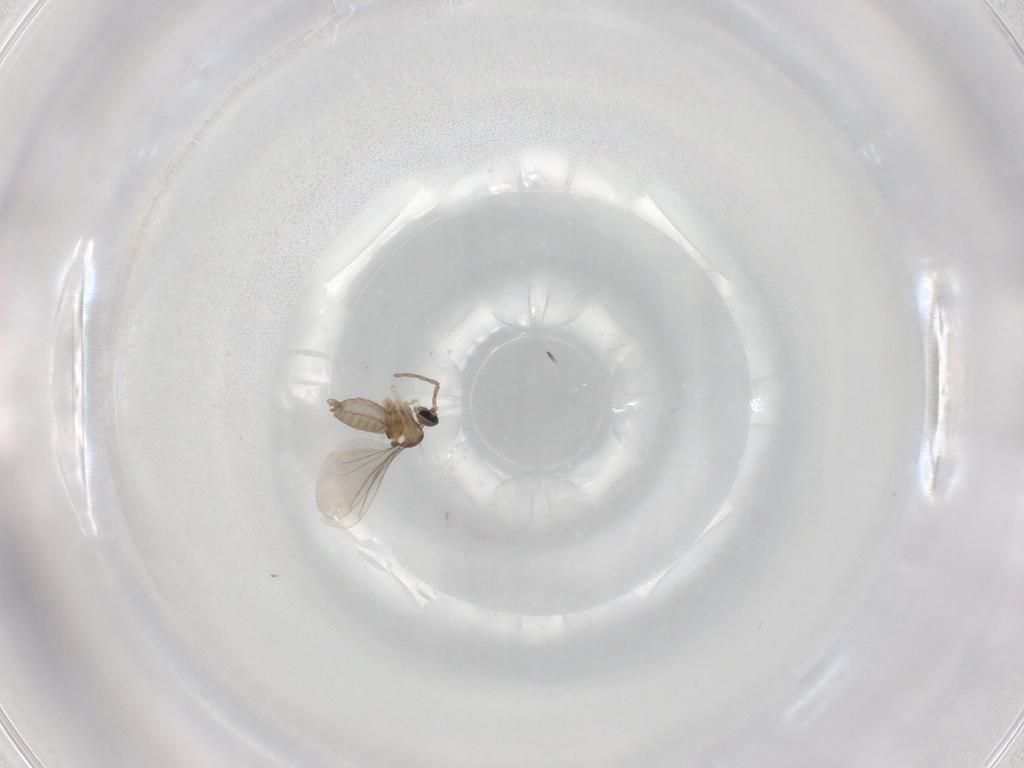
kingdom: Animalia
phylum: Arthropoda
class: Insecta
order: Diptera
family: Cecidomyiidae
